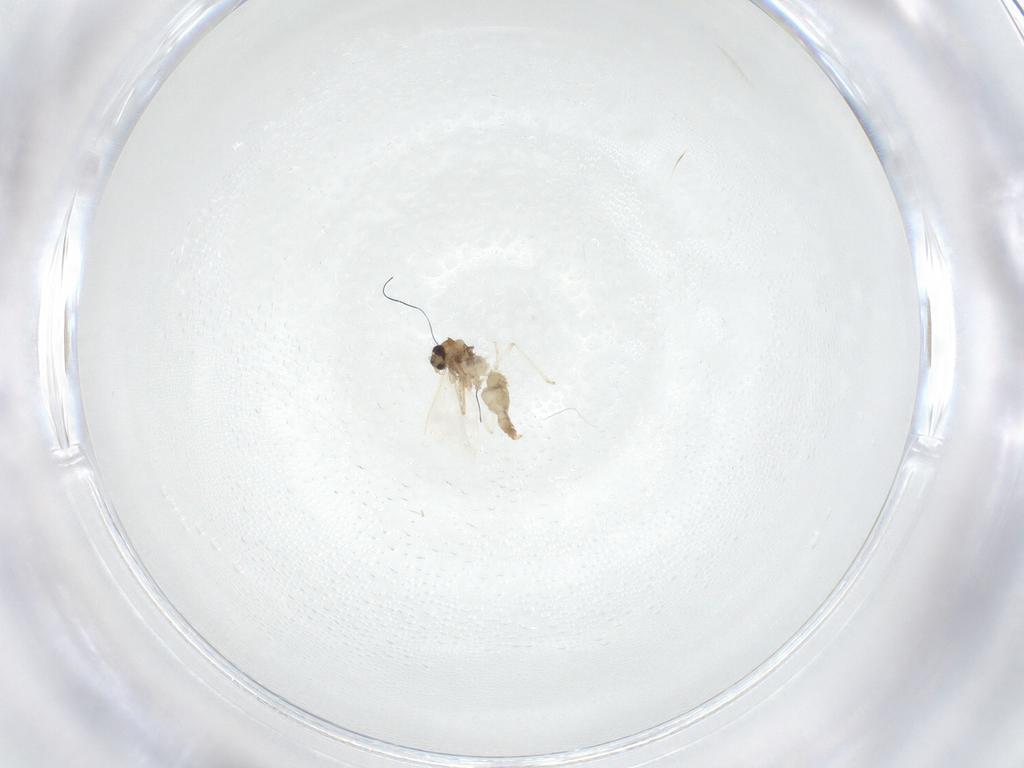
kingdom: Animalia
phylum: Arthropoda
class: Insecta
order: Diptera
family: Cecidomyiidae
